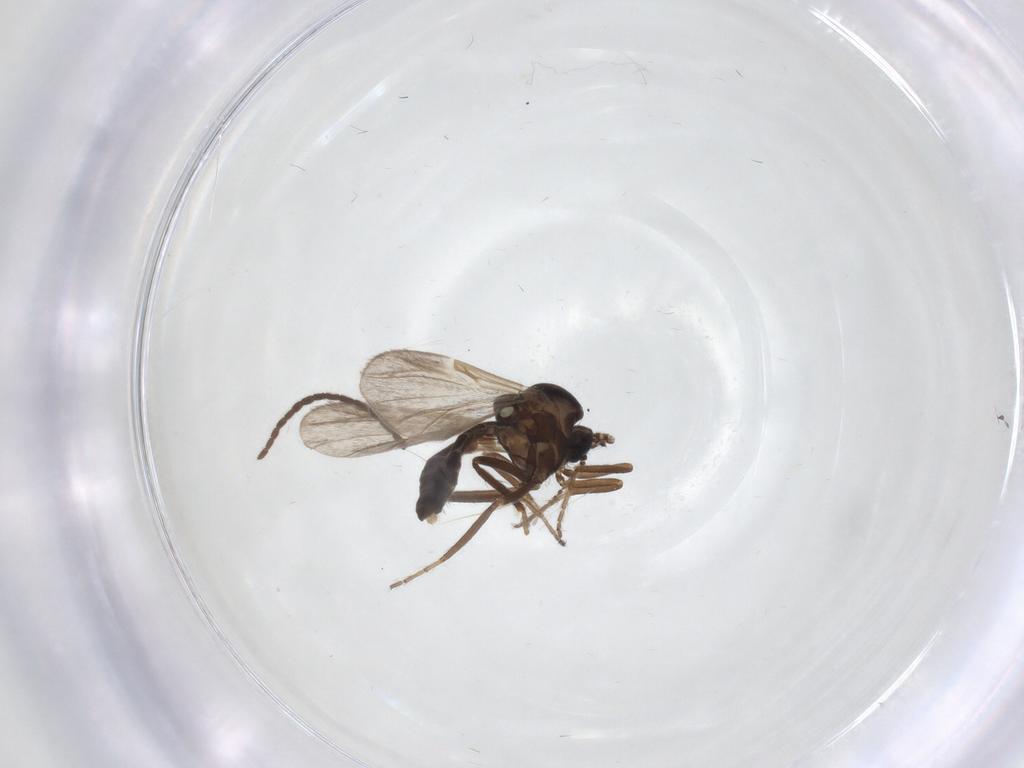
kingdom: Animalia
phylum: Arthropoda
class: Insecta
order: Diptera
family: Ceratopogonidae
